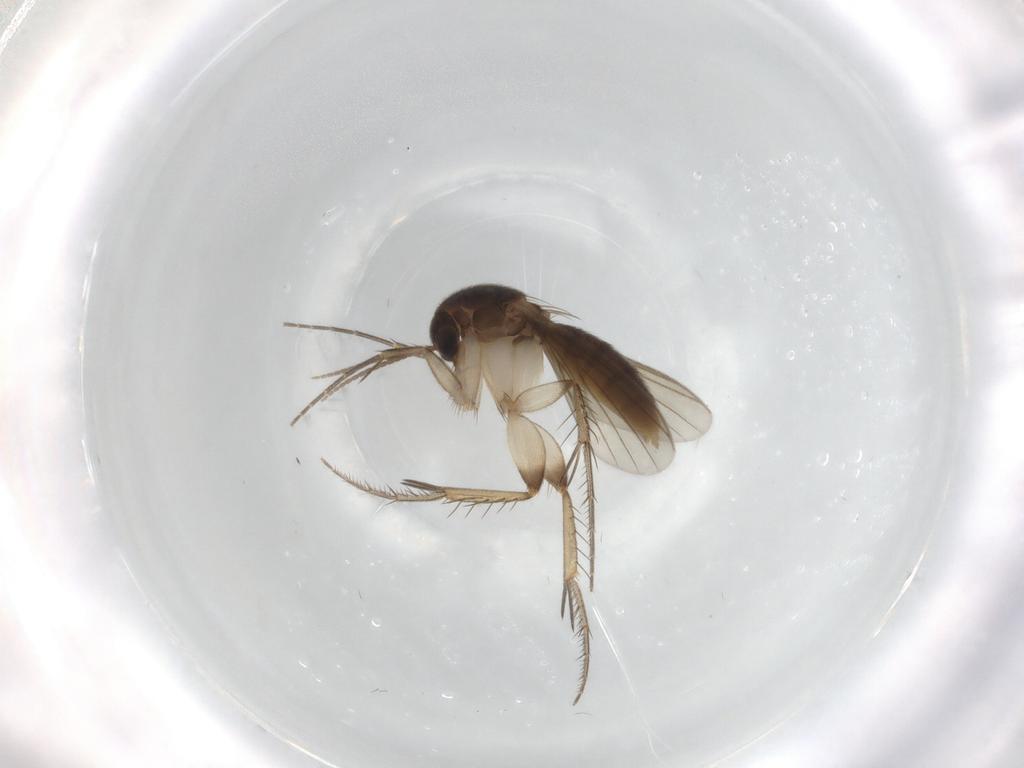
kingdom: Animalia
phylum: Arthropoda
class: Insecta
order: Diptera
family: Mycetophilidae
